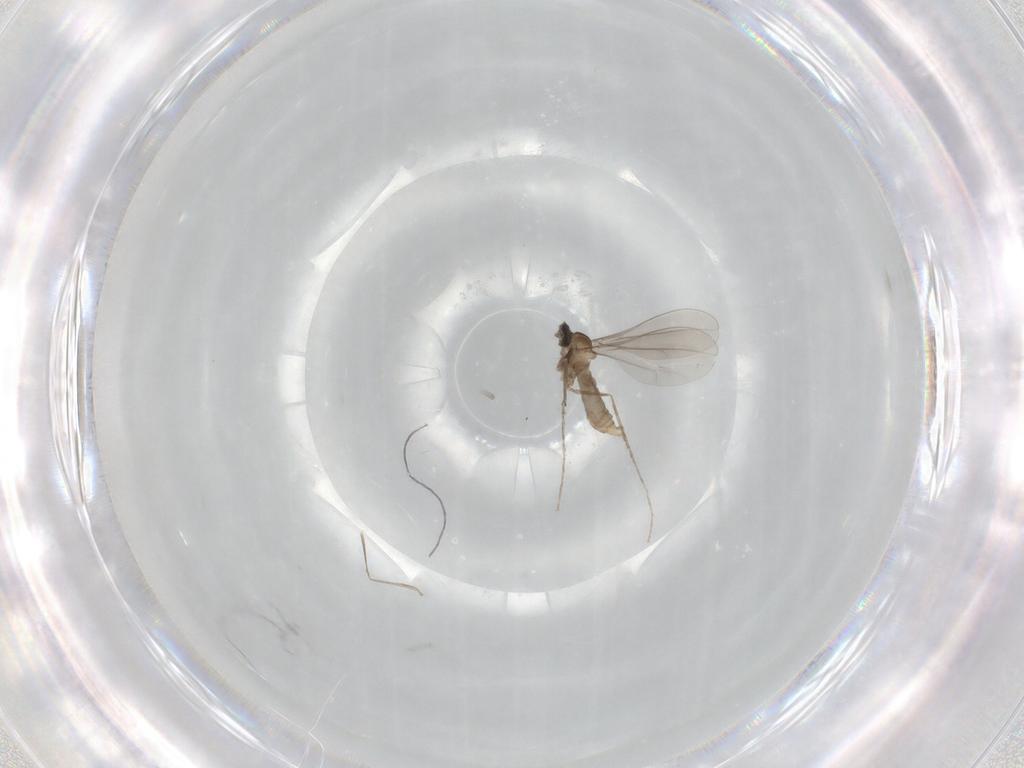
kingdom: Animalia
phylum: Arthropoda
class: Insecta
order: Diptera
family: Cecidomyiidae
